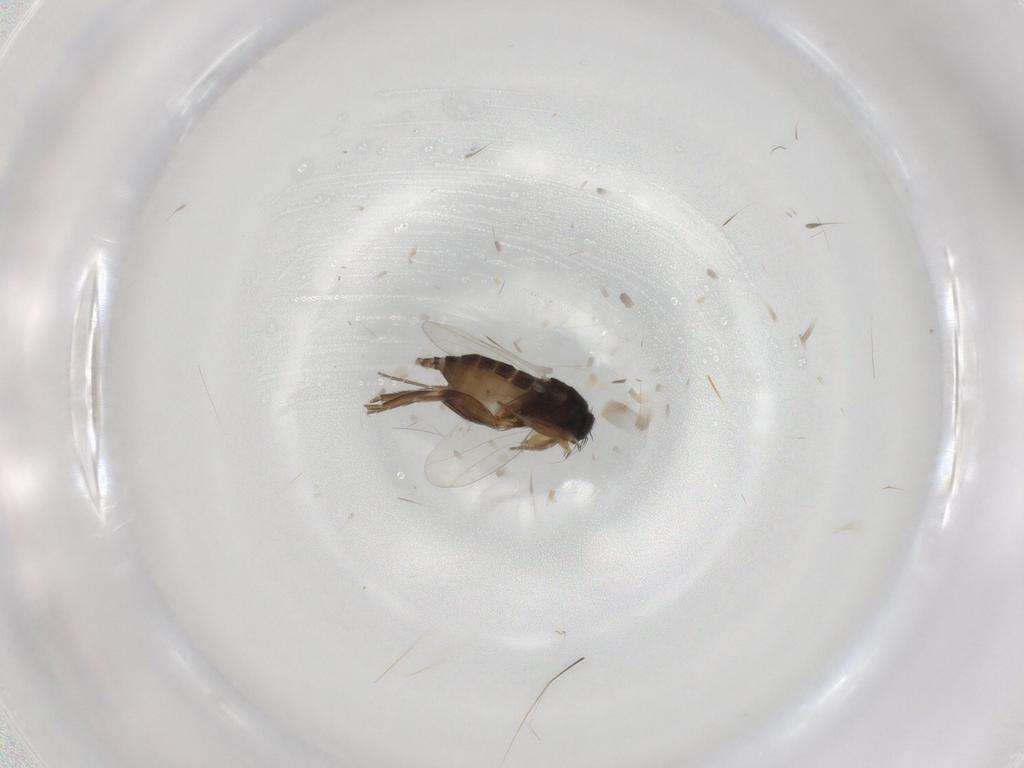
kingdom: Animalia
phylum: Arthropoda
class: Insecta
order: Diptera
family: Phoridae
